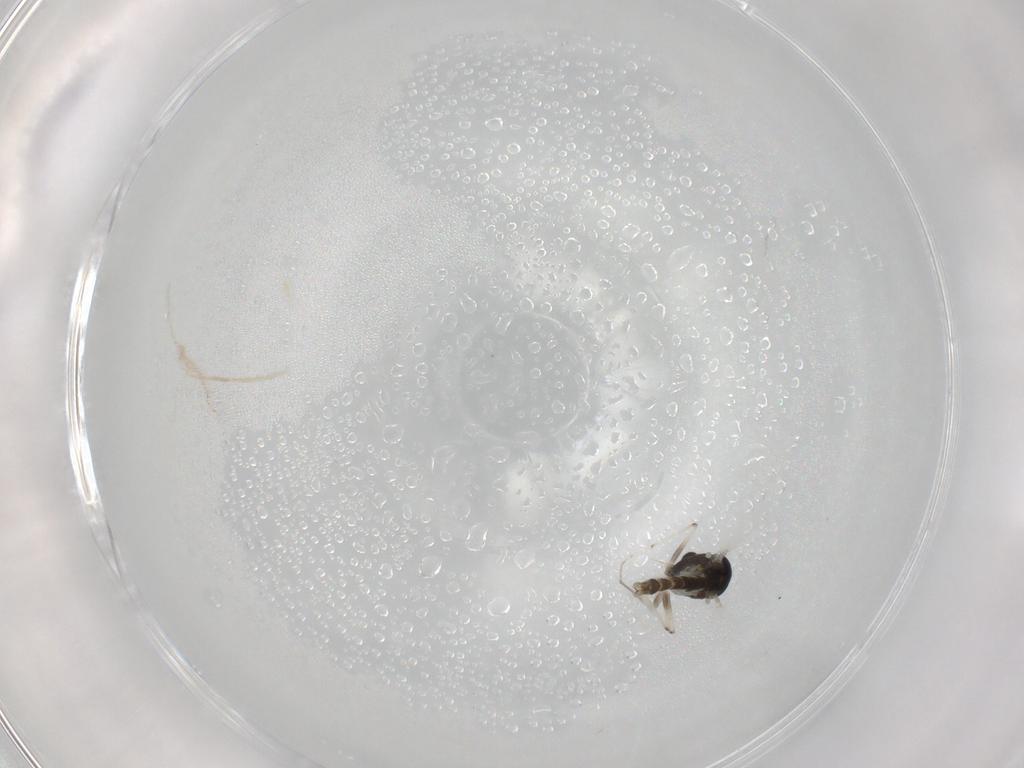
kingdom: Animalia
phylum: Arthropoda
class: Insecta
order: Diptera
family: Chironomidae
